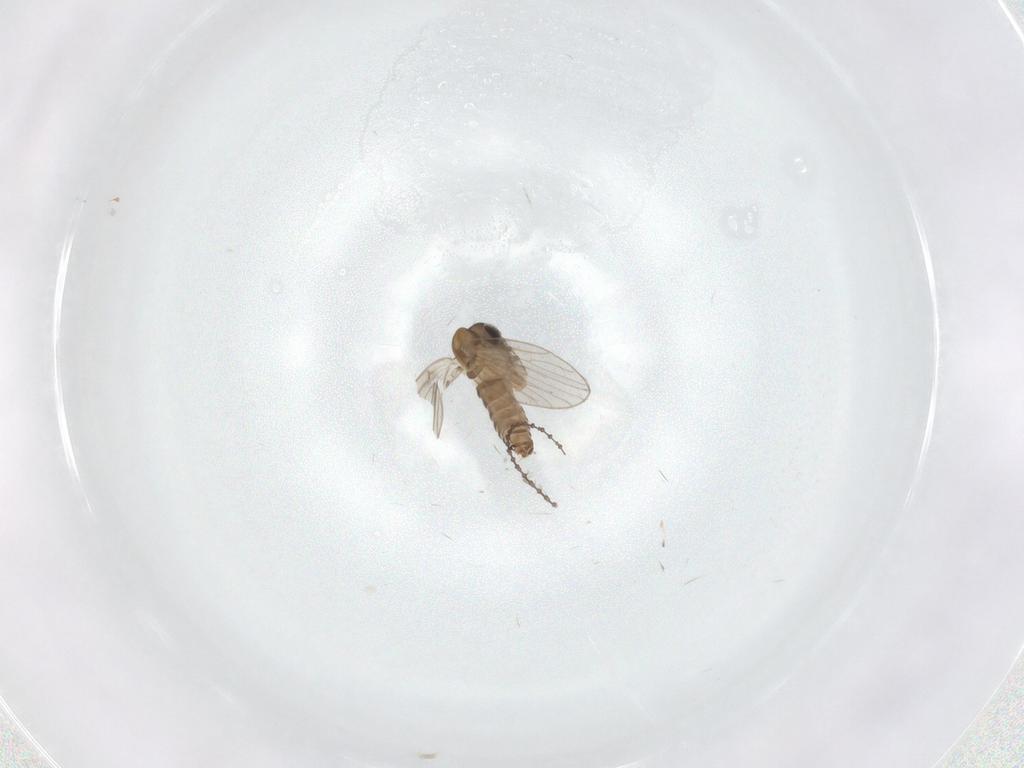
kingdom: Animalia
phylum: Arthropoda
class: Insecta
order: Diptera
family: Cecidomyiidae
